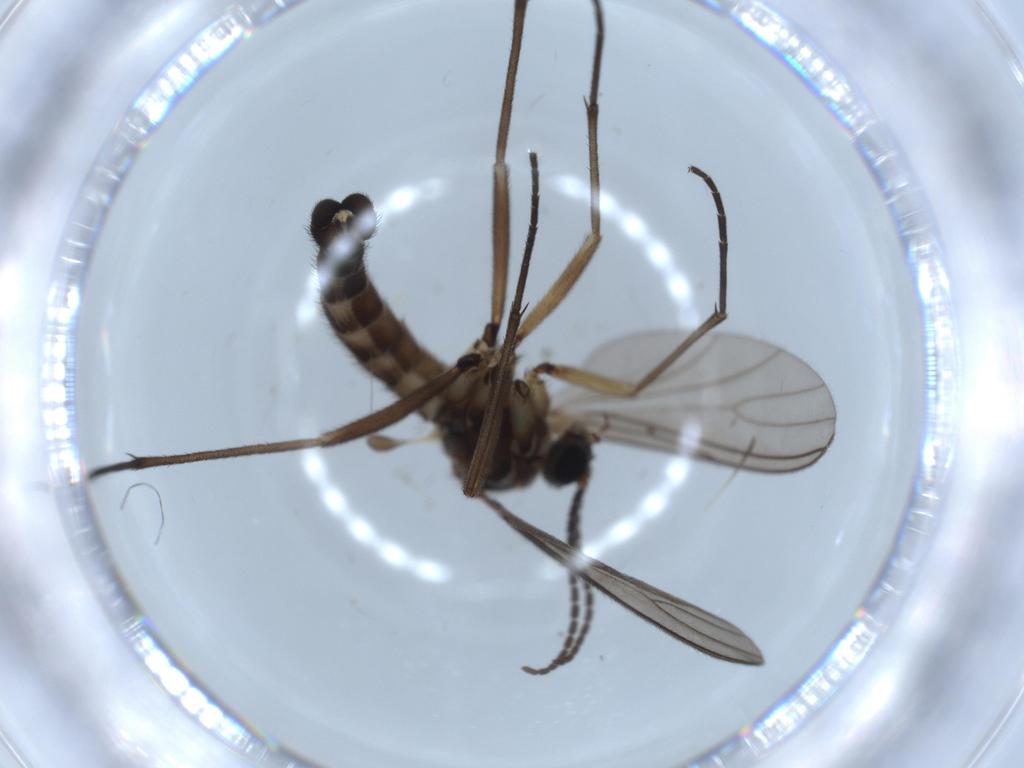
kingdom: Animalia
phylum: Arthropoda
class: Insecta
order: Diptera
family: Sciaridae
